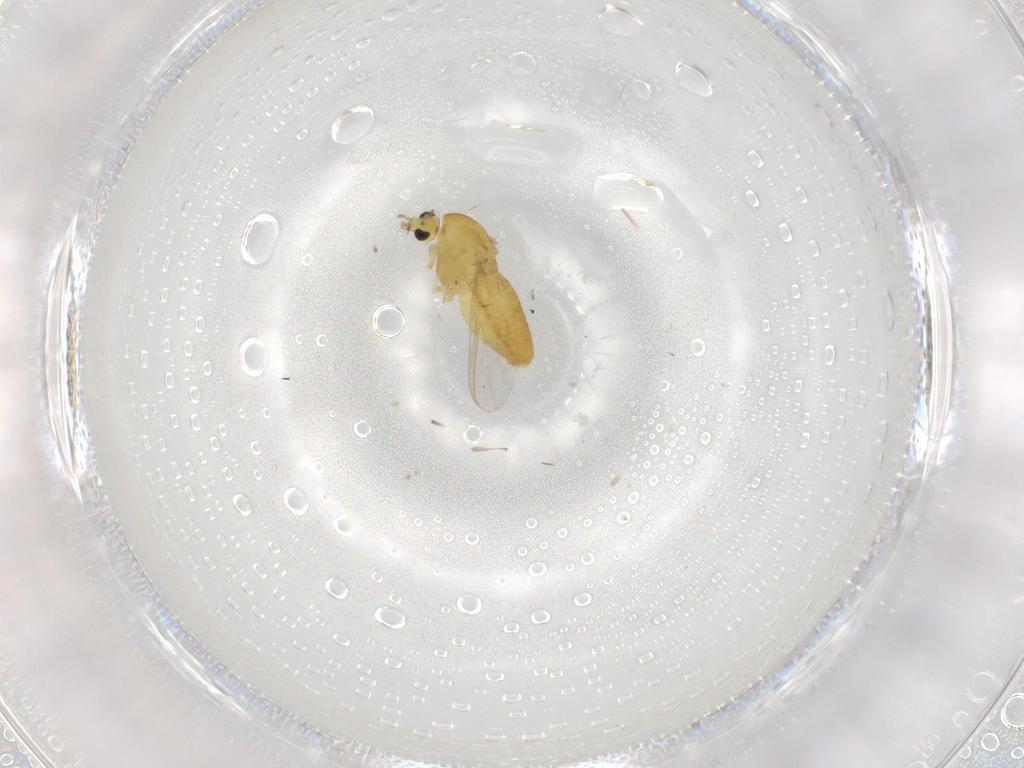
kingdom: Animalia
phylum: Arthropoda
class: Insecta
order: Diptera
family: Chironomidae
